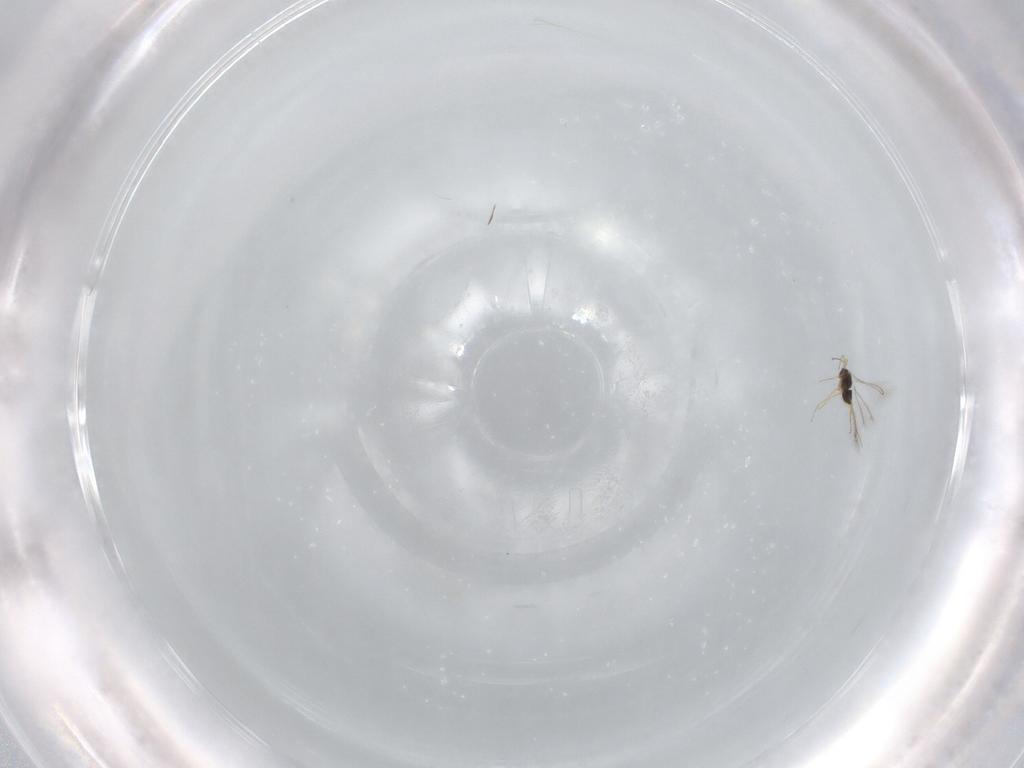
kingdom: Animalia
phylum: Arthropoda
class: Insecta
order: Hymenoptera
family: Mymaridae
